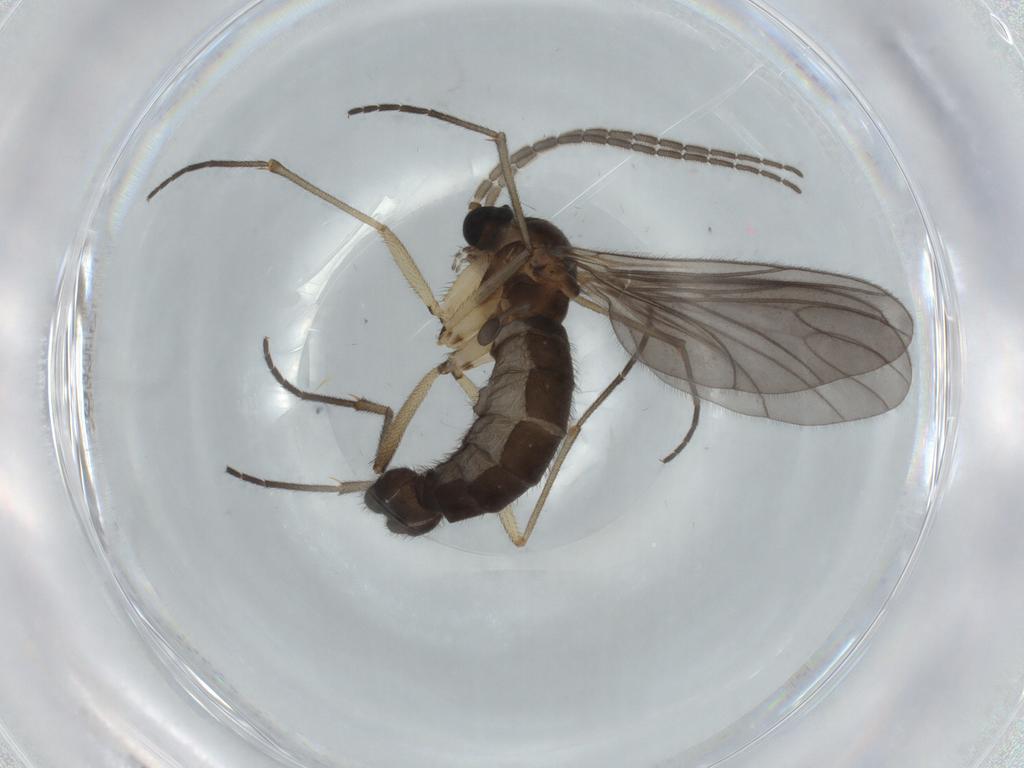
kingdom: Animalia
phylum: Arthropoda
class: Insecta
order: Diptera
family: Sciaridae
